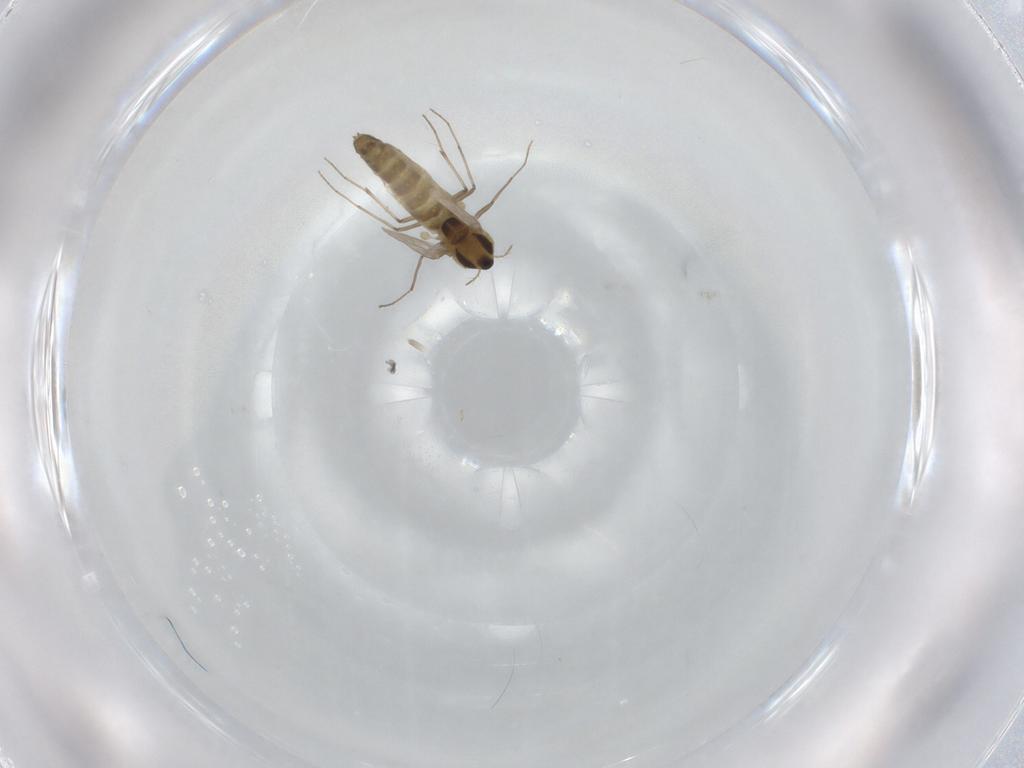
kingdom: Animalia
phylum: Arthropoda
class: Insecta
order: Diptera
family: Chironomidae
